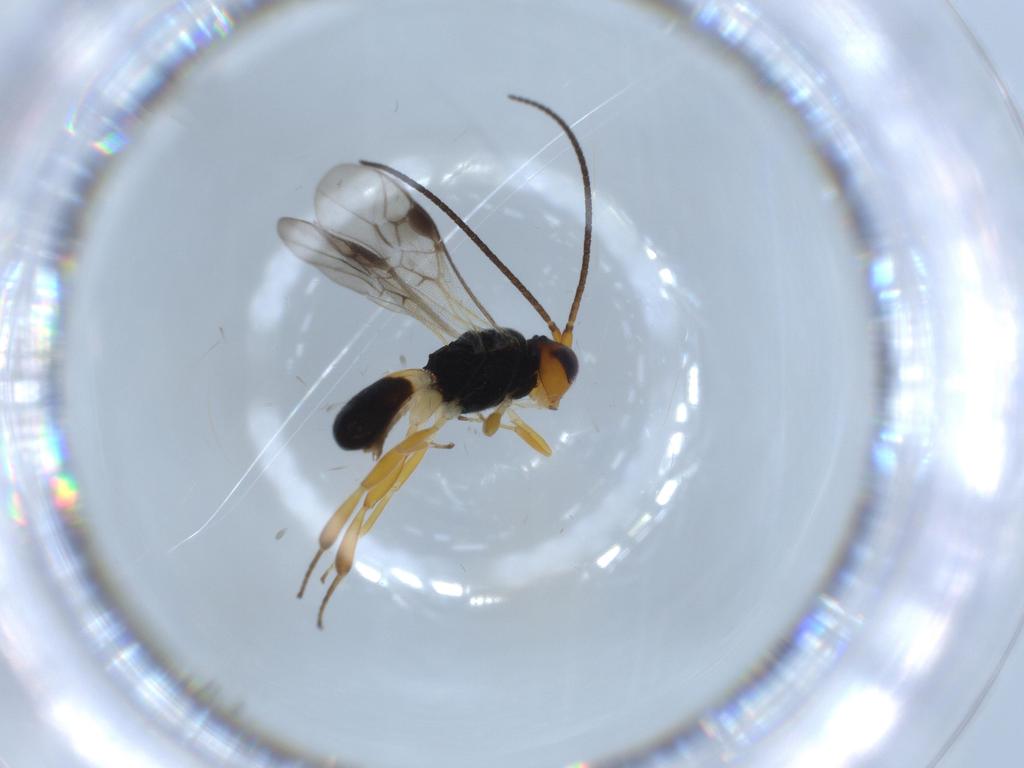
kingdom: Animalia
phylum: Arthropoda
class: Insecta
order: Hymenoptera
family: Braconidae
